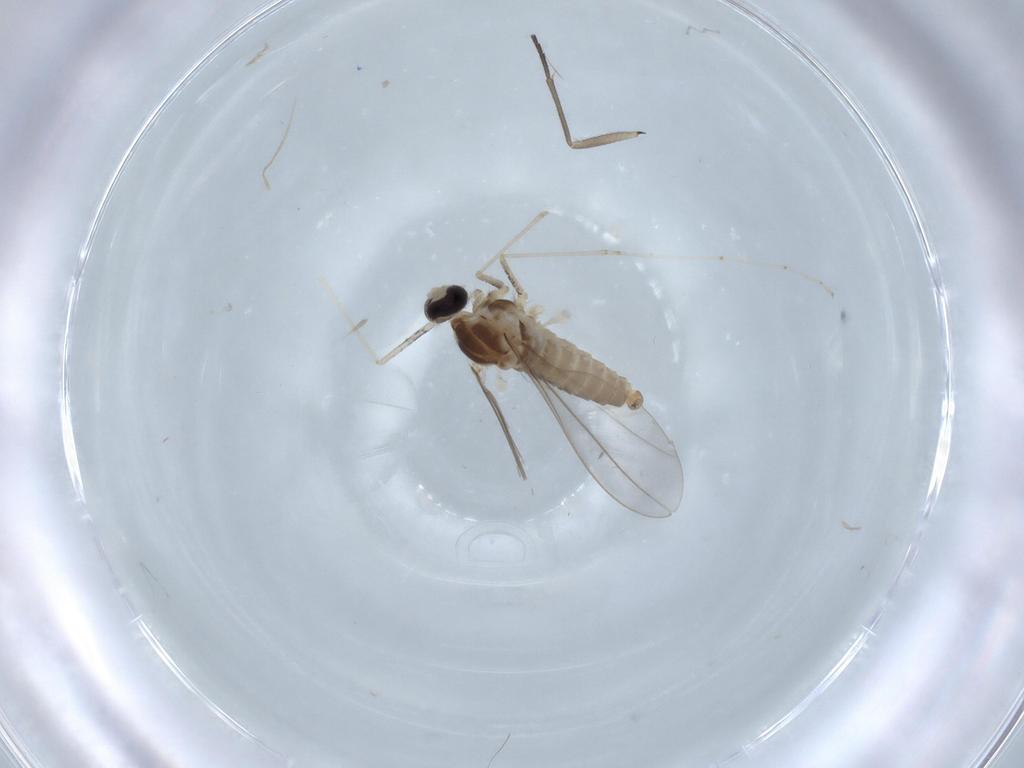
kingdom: Animalia
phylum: Arthropoda
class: Insecta
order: Diptera
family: Cecidomyiidae
